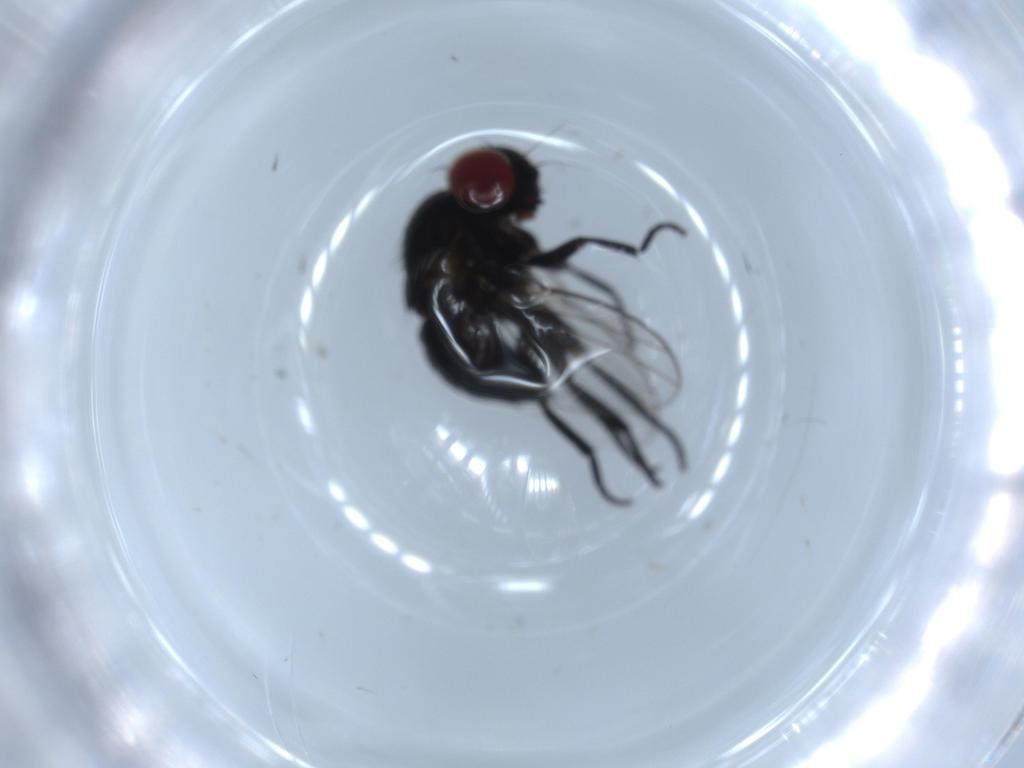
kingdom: Animalia
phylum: Arthropoda
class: Insecta
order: Diptera
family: Phoridae
